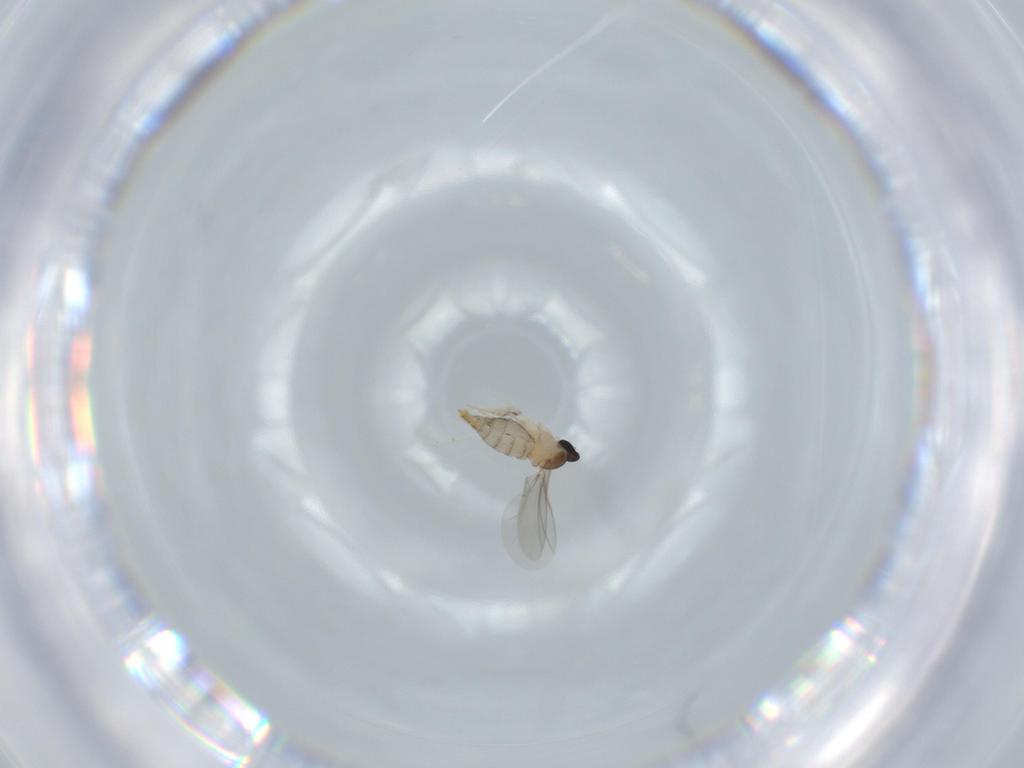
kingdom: Animalia
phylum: Arthropoda
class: Insecta
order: Diptera
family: Cecidomyiidae
